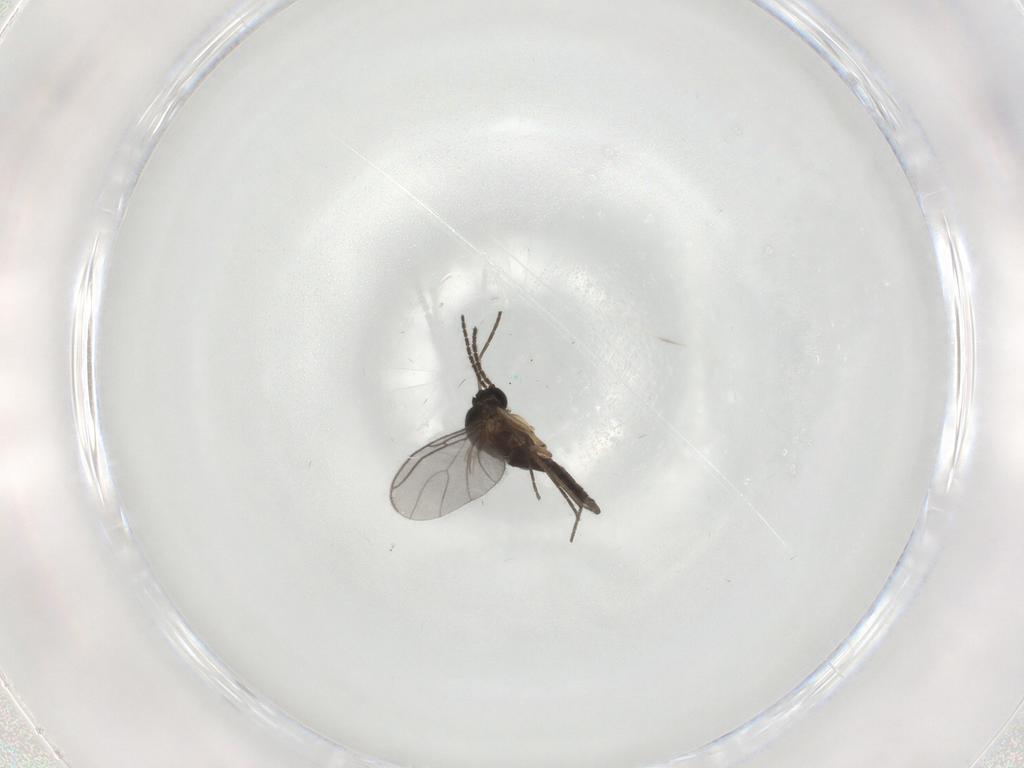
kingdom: Animalia
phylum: Arthropoda
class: Insecta
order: Diptera
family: Sciaridae
